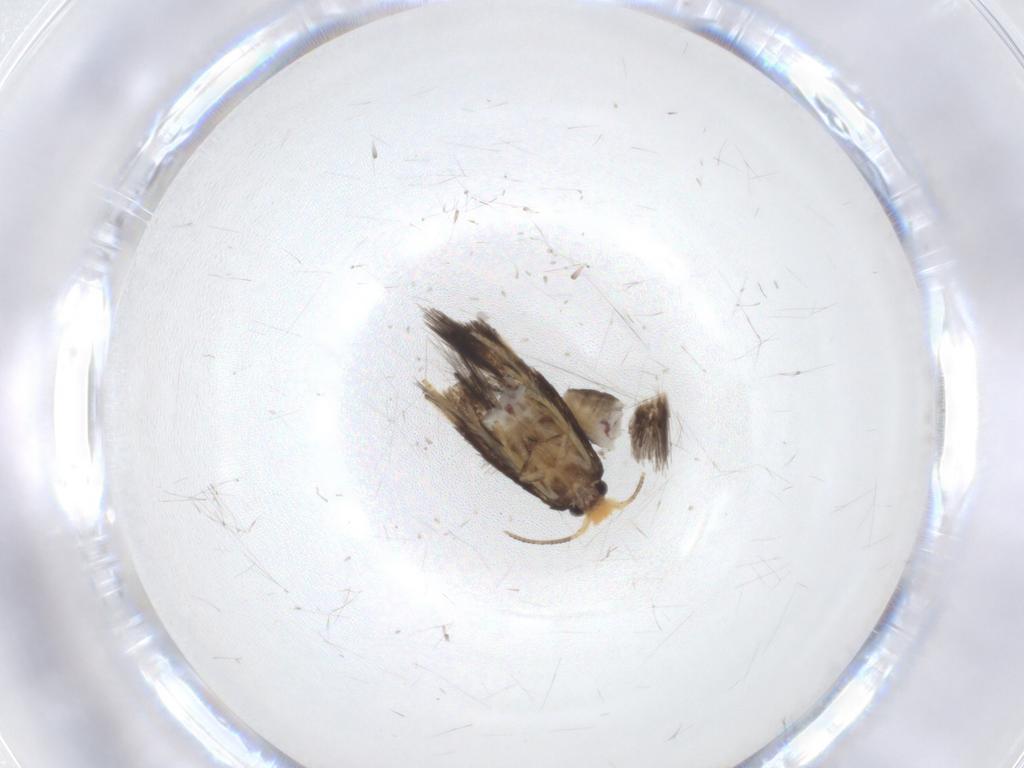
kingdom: Animalia
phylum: Arthropoda
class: Insecta
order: Lepidoptera
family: Nepticulidae
